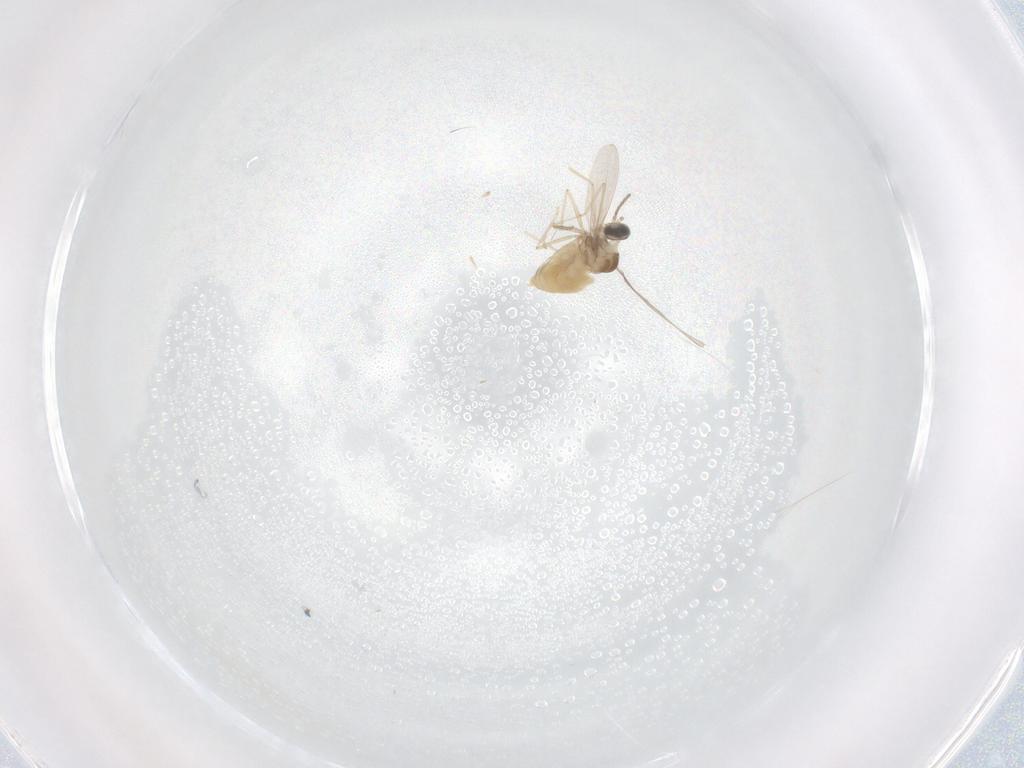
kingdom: Animalia
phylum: Arthropoda
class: Insecta
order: Diptera
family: Cecidomyiidae
